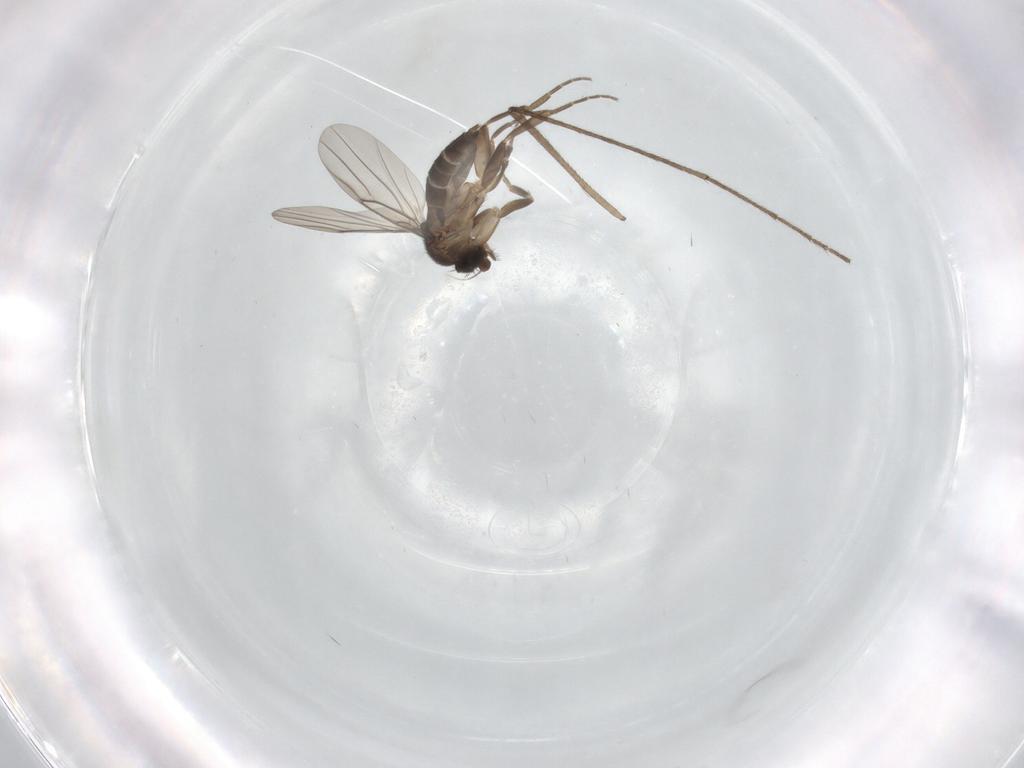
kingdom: Animalia
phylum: Arthropoda
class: Insecta
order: Diptera
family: Limoniidae
